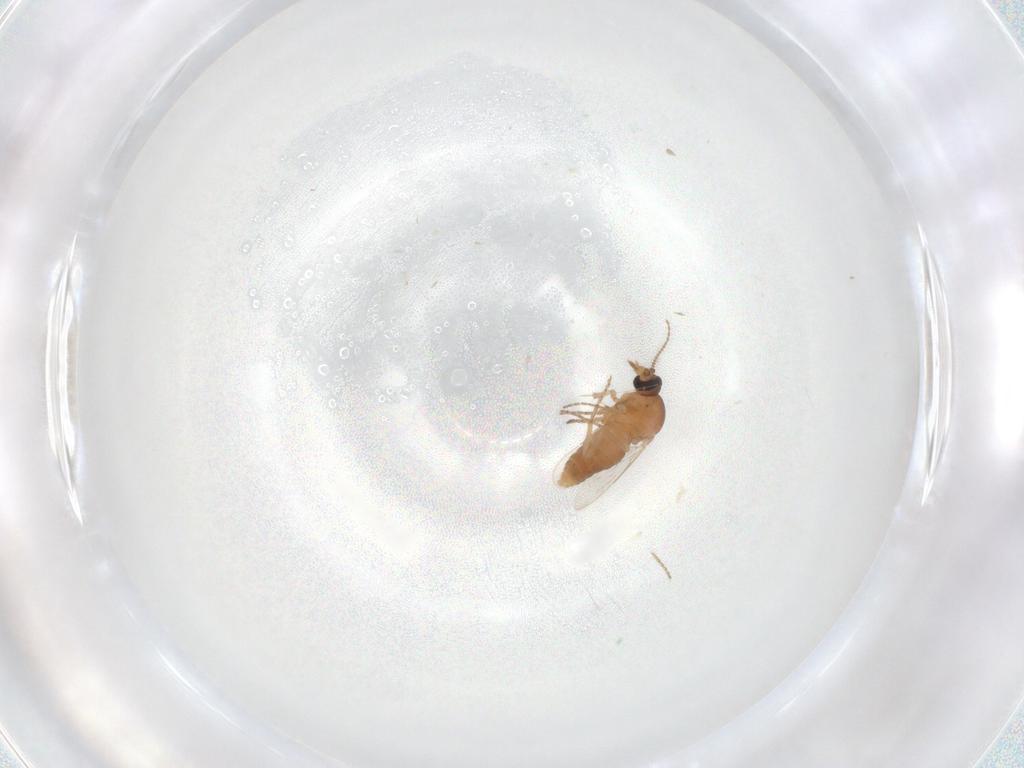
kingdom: Animalia
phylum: Arthropoda
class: Insecta
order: Diptera
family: Ceratopogonidae
